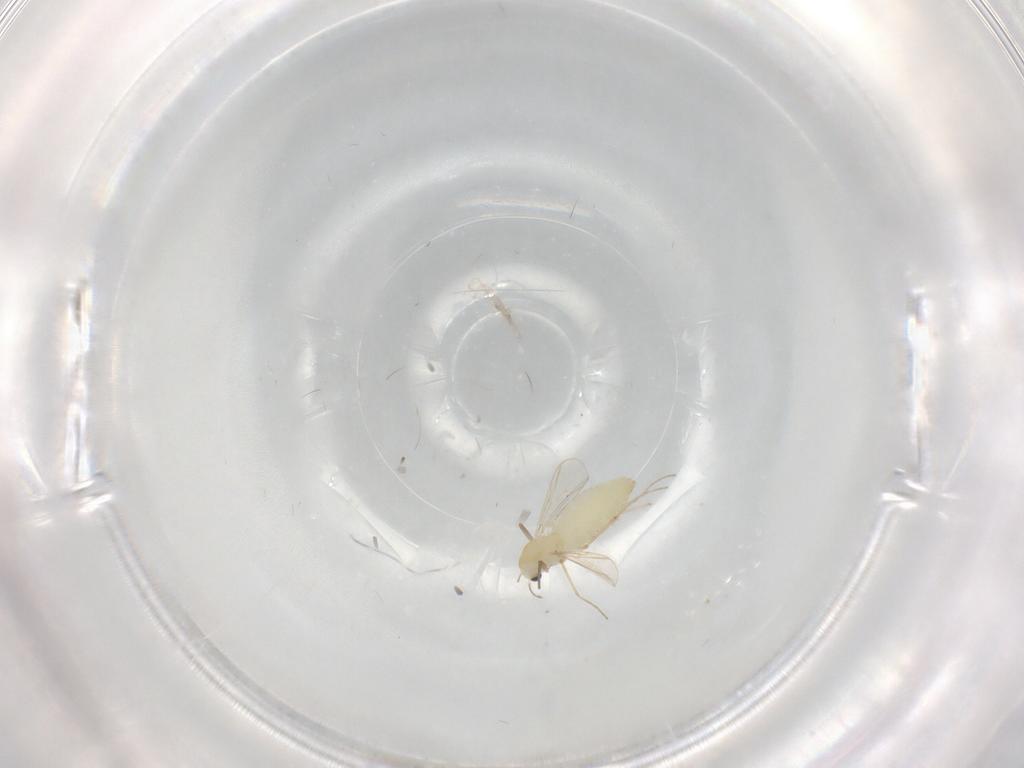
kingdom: Animalia
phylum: Arthropoda
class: Insecta
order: Diptera
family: Chironomidae
